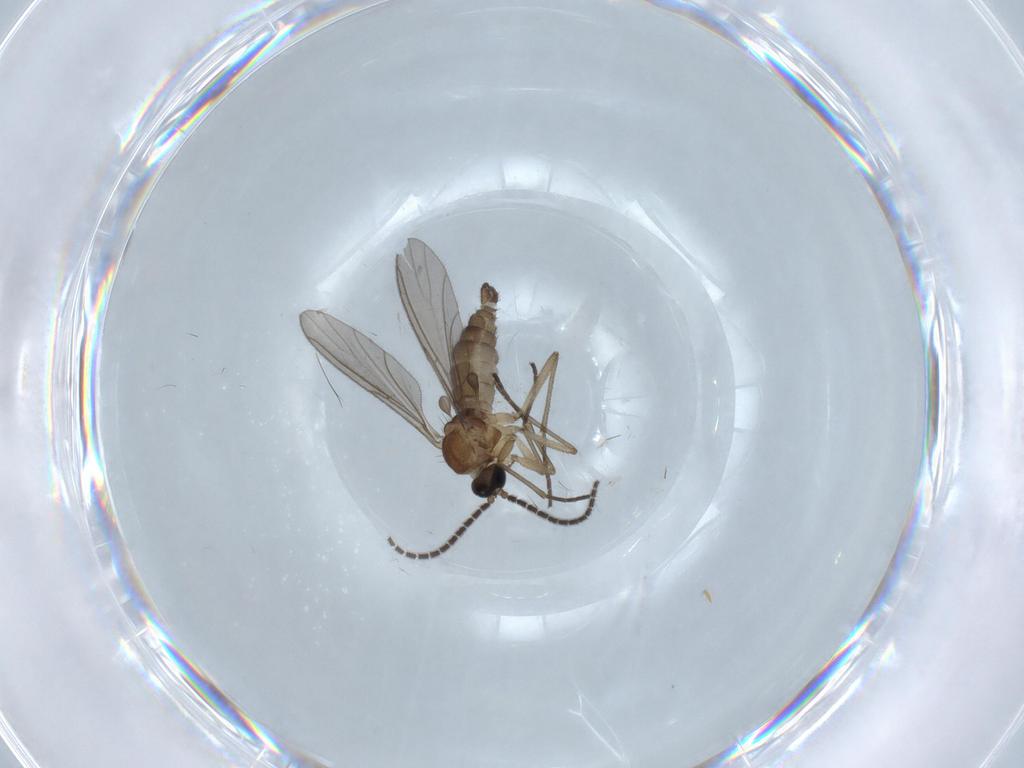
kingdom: Animalia
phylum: Arthropoda
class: Insecta
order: Diptera
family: Sciaridae
